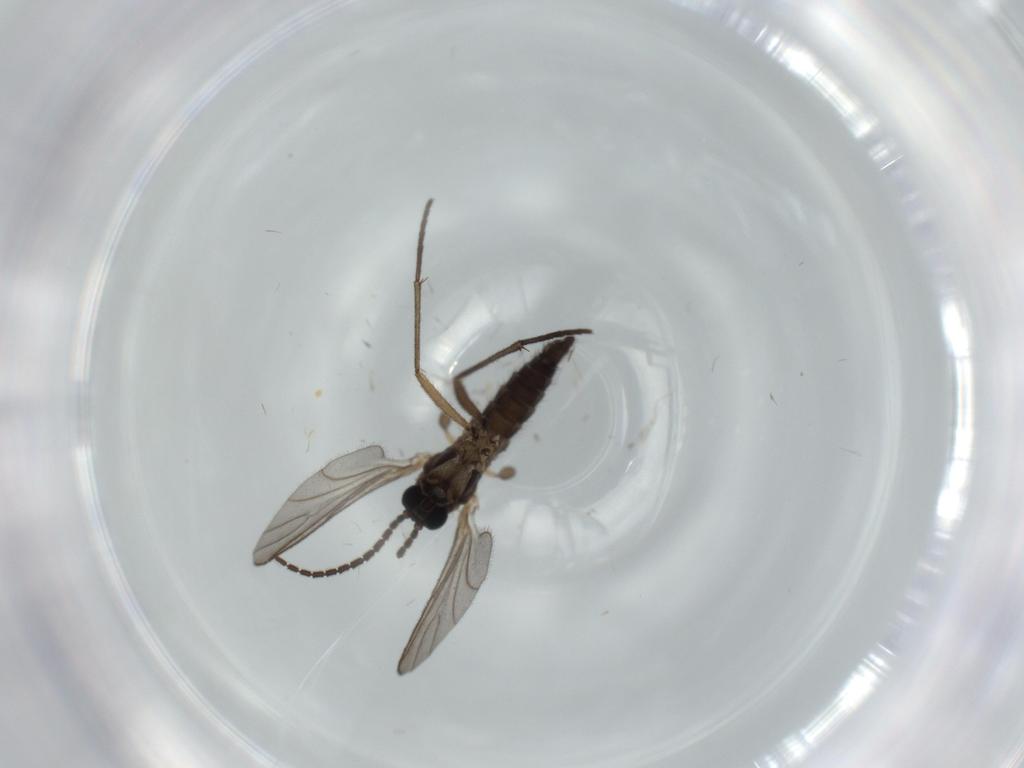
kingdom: Animalia
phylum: Arthropoda
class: Insecta
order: Diptera
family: Sciaridae
